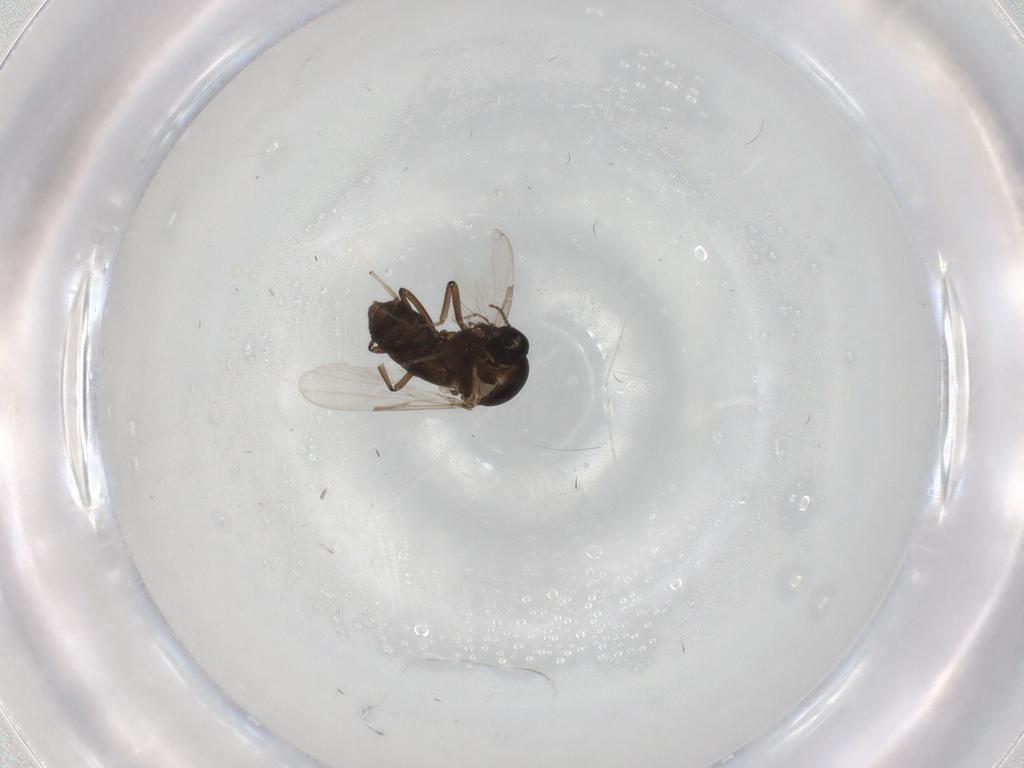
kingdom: Animalia
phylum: Arthropoda
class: Insecta
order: Diptera
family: Ceratopogonidae
